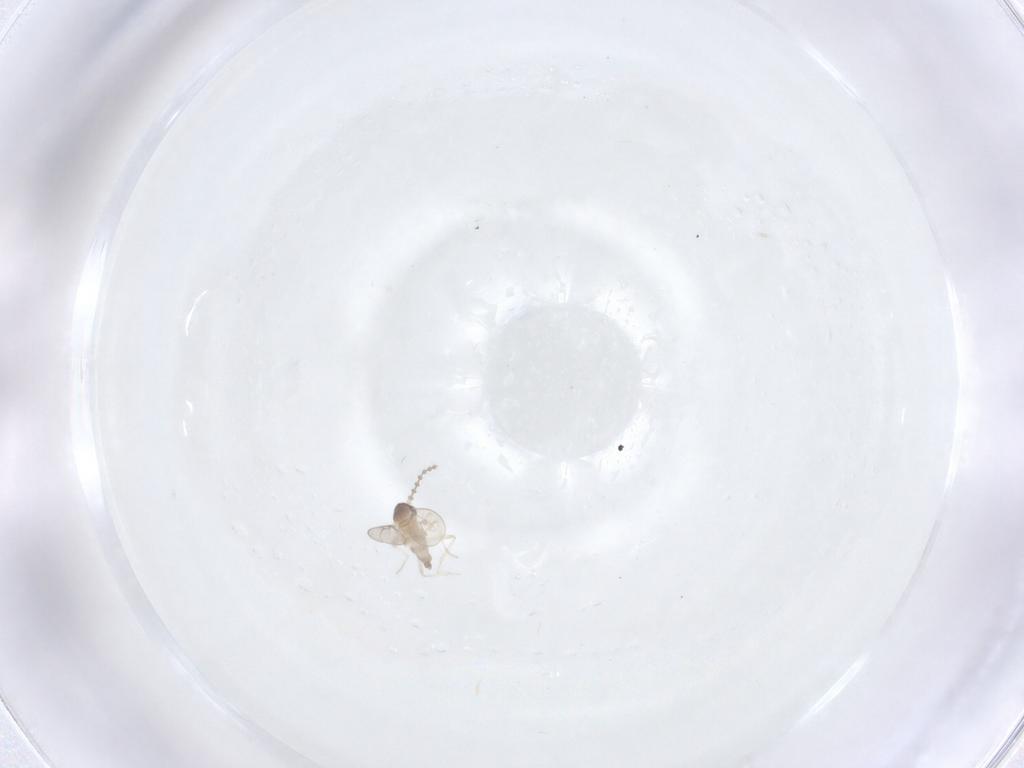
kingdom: Animalia
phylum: Arthropoda
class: Insecta
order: Diptera
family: Cecidomyiidae
